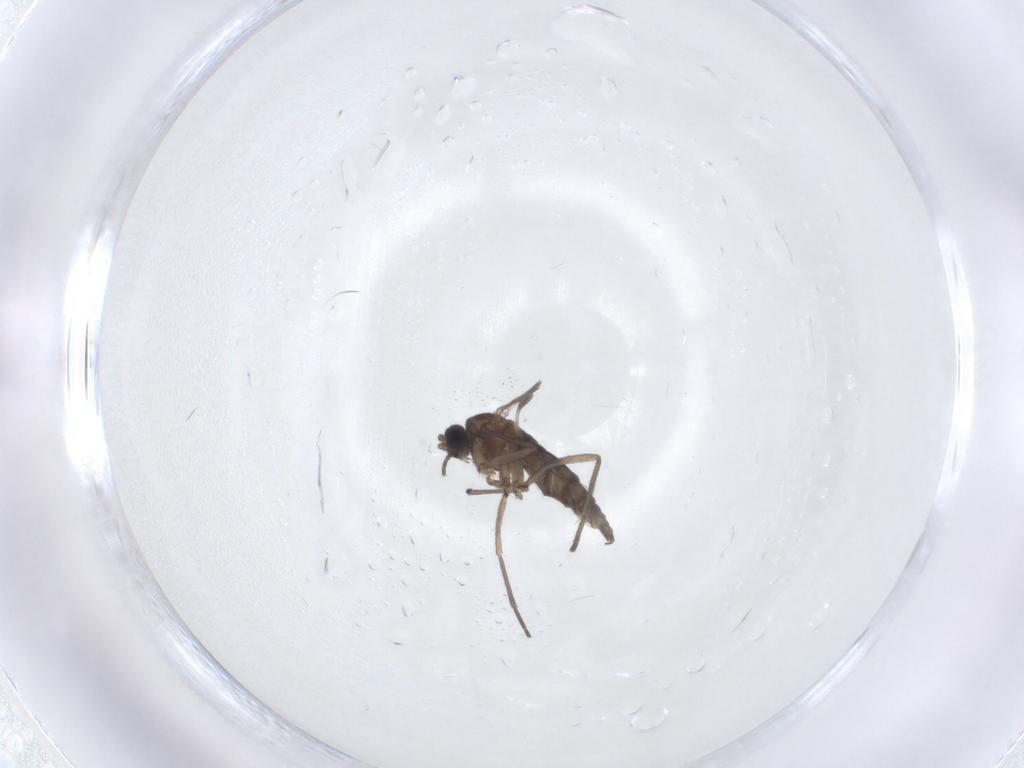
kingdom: Animalia
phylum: Arthropoda
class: Insecta
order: Diptera
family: Sciaridae
